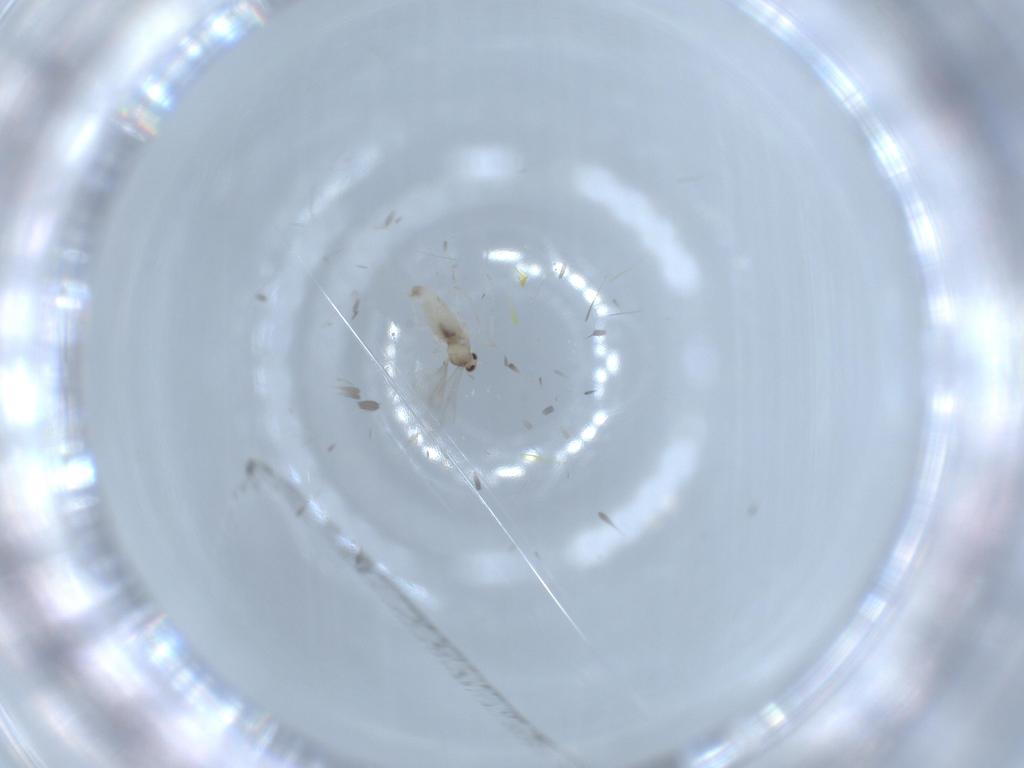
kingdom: Animalia
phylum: Arthropoda
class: Insecta
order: Diptera
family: Cecidomyiidae
